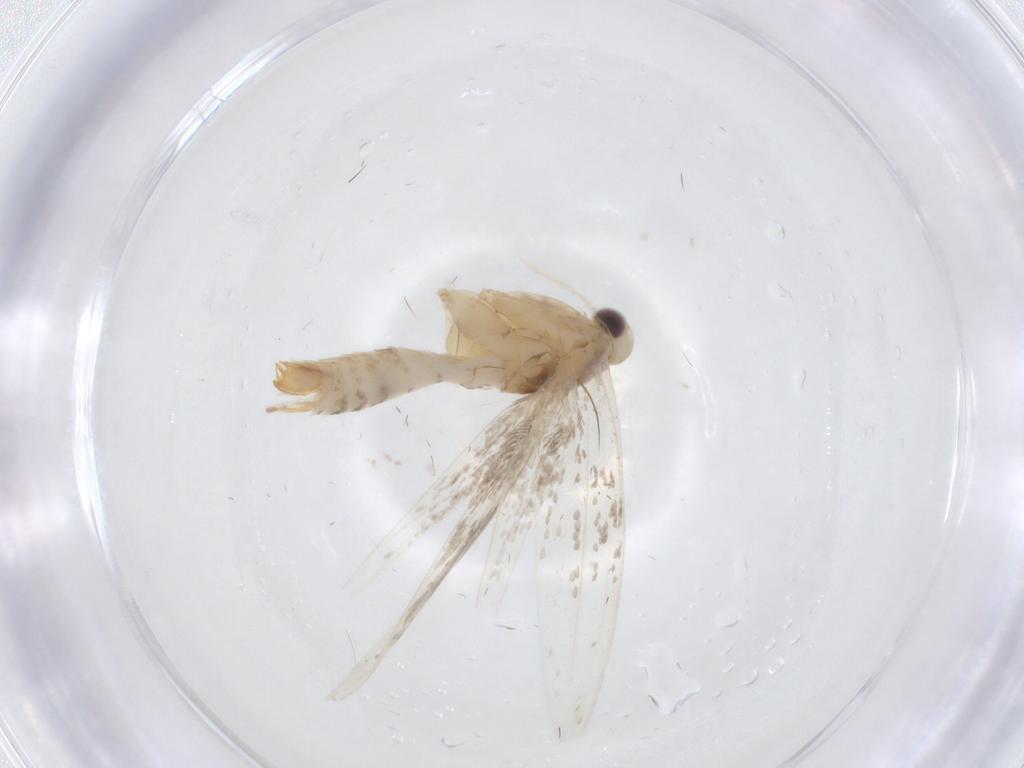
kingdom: Animalia
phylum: Arthropoda
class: Insecta
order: Lepidoptera
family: Gracillariidae
